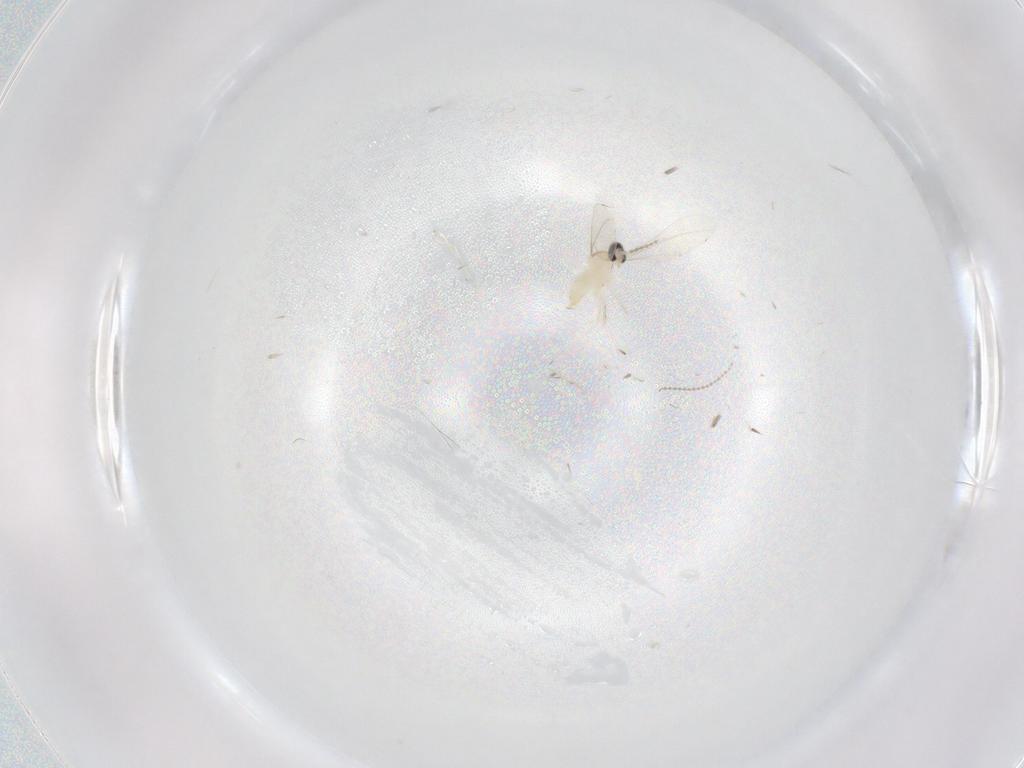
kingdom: Animalia
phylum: Arthropoda
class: Insecta
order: Diptera
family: Cecidomyiidae
